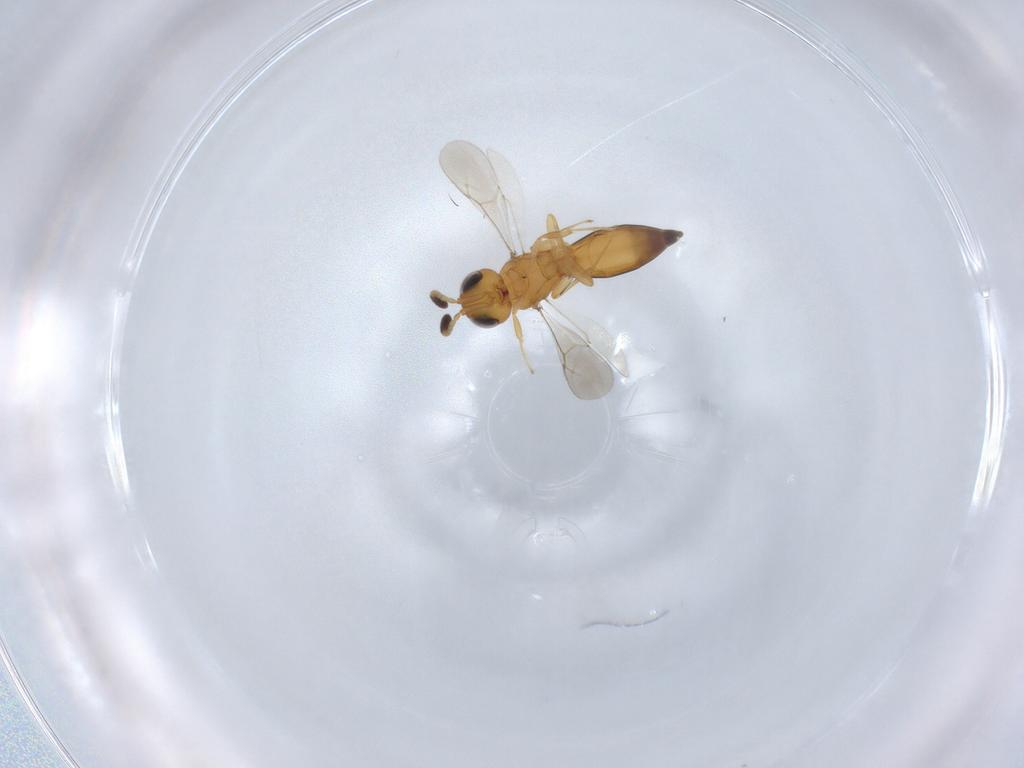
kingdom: Animalia
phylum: Arthropoda
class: Insecta
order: Hymenoptera
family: Scelionidae
